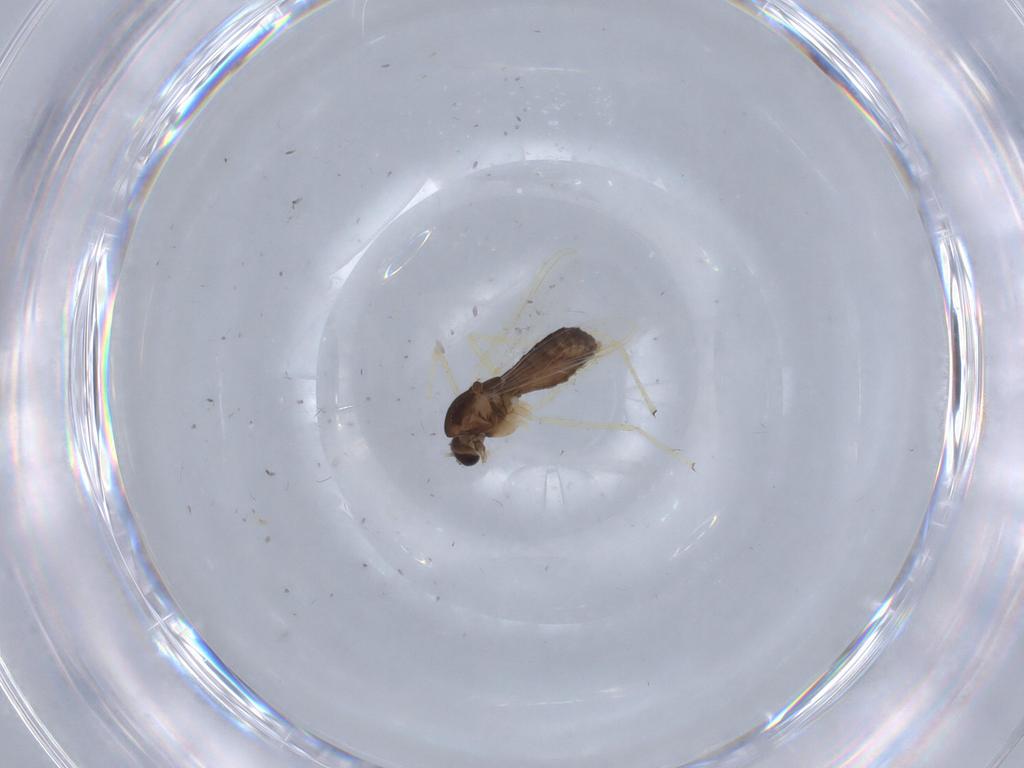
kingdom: Animalia
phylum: Arthropoda
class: Insecta
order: Diptera
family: Chironomidae
